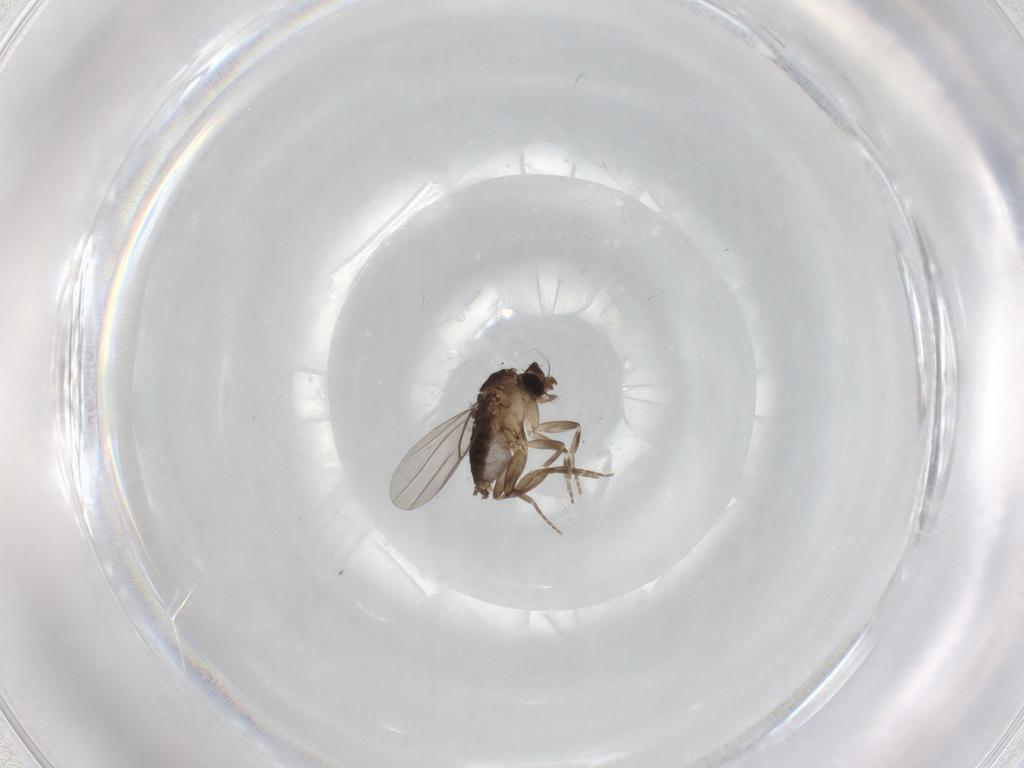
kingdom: Animalia
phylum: Arthropoda
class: Insecta
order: Diptera
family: Phoridae
